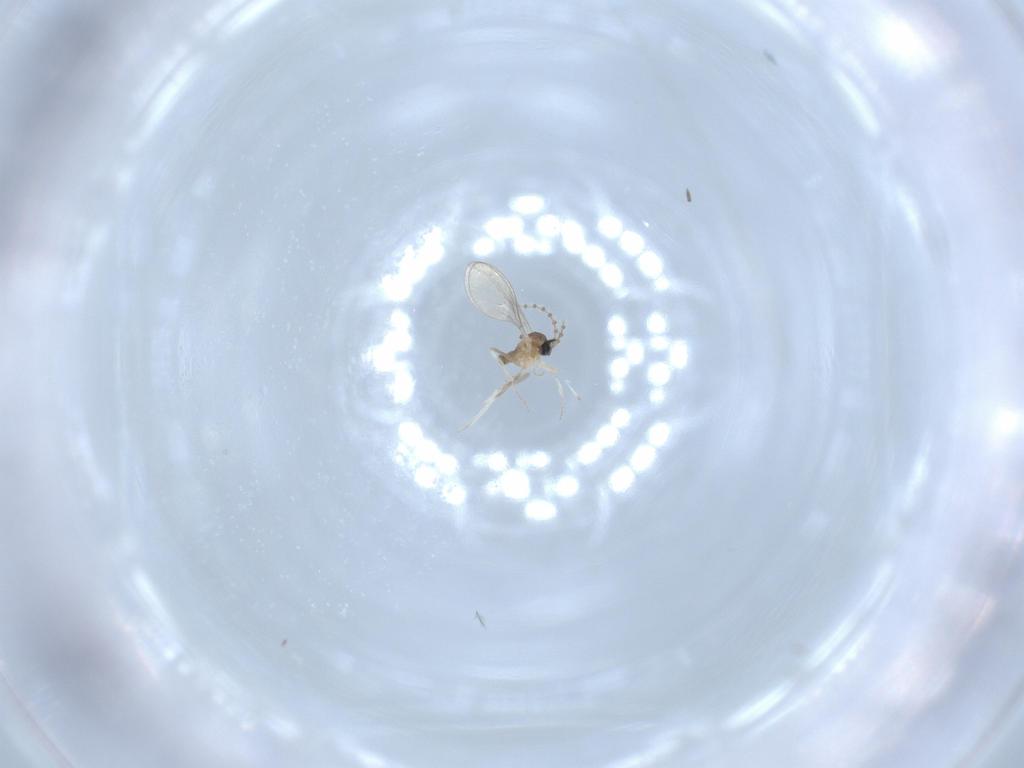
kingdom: Animalia
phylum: Arthropoda
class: Insecta
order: Diptera
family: Cecidomyiidae
